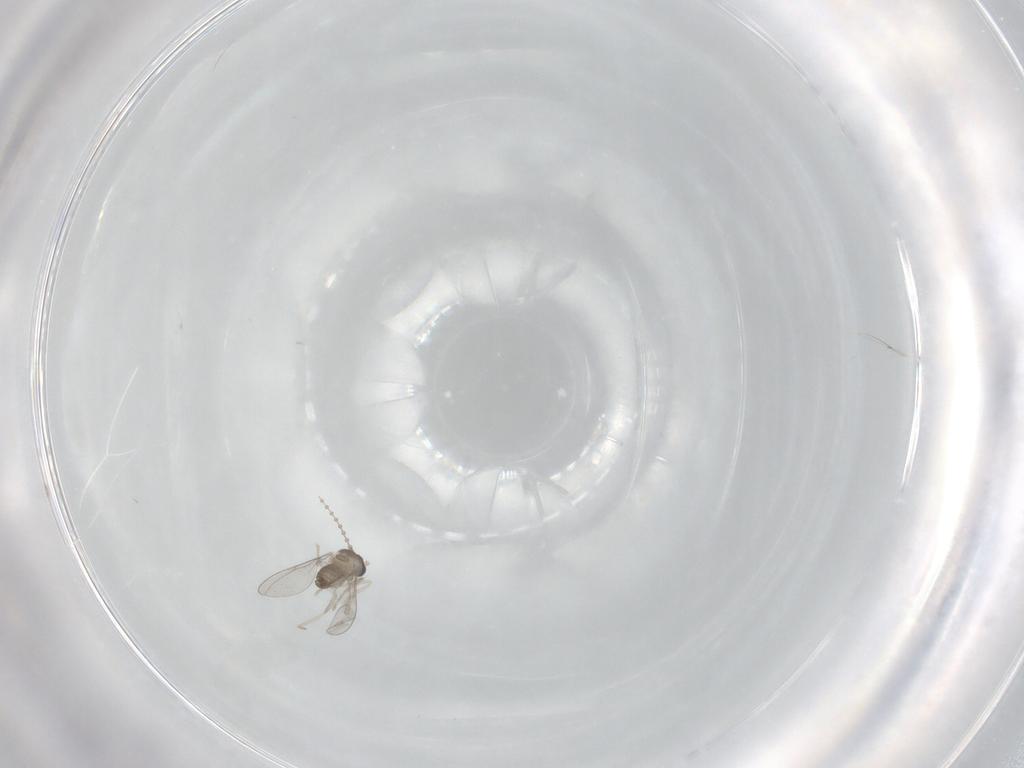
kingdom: Animalia
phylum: Arthropoda
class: Insecta
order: Diptera
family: Cecidomyiidae
